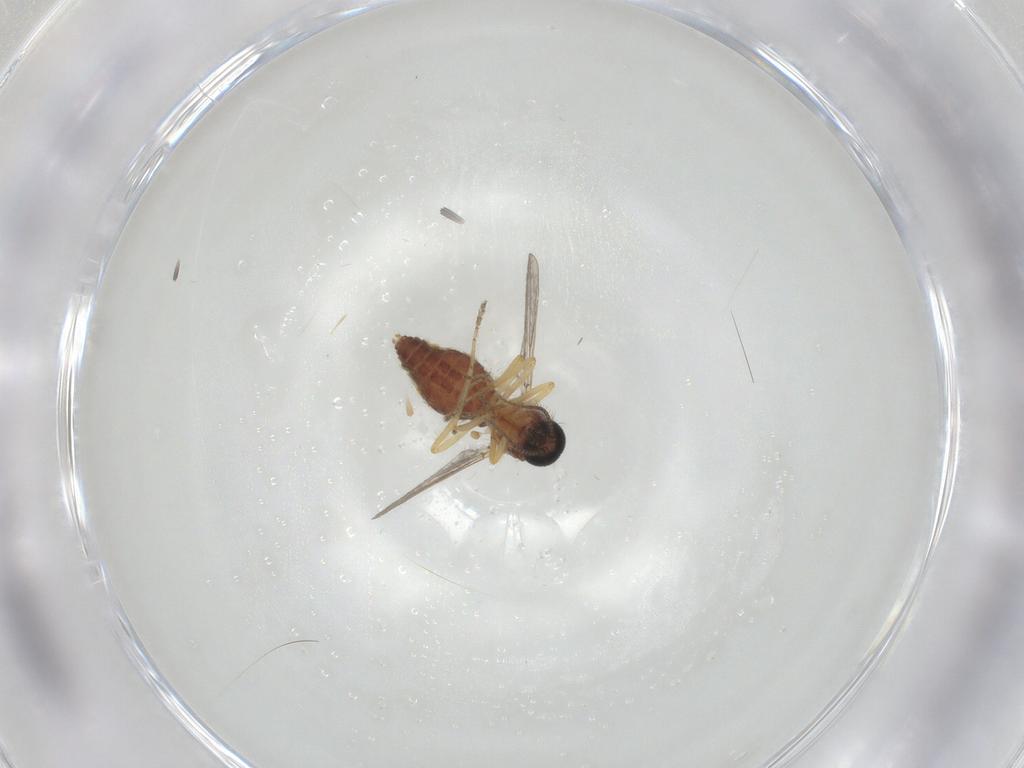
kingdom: Animalia
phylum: Arthropoda
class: Insecta
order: Diptera
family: Ceratopogonidae
